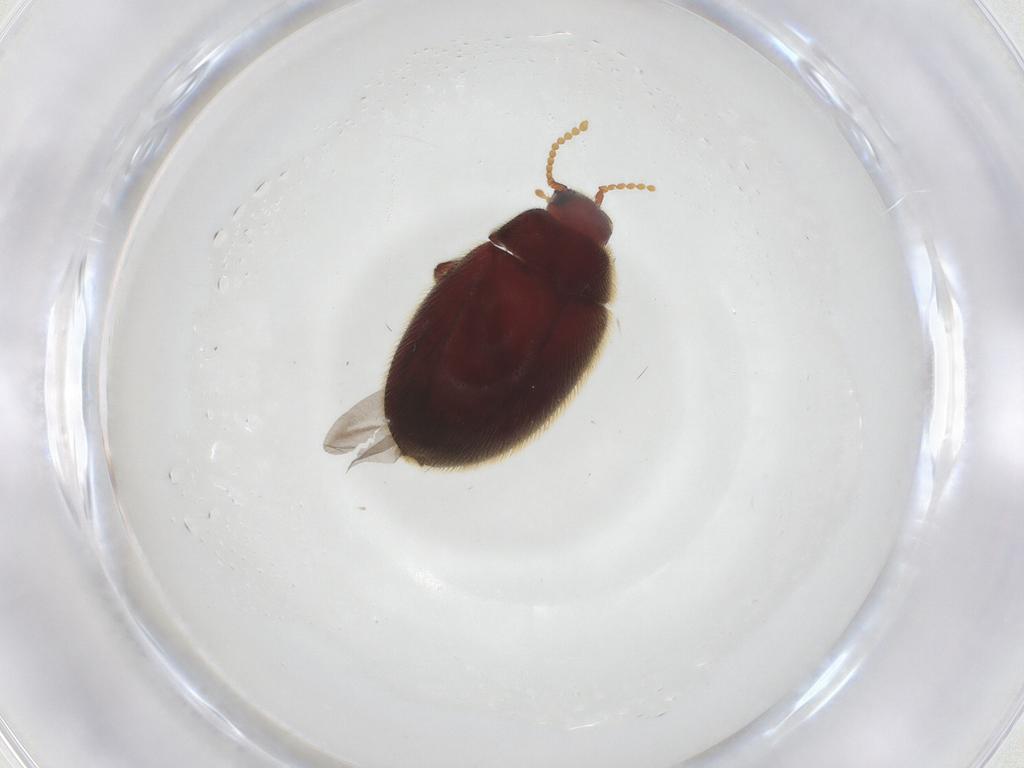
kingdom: Animalia
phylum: Arthropoda
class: Insecta
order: Coleoptera
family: Limnichidae
